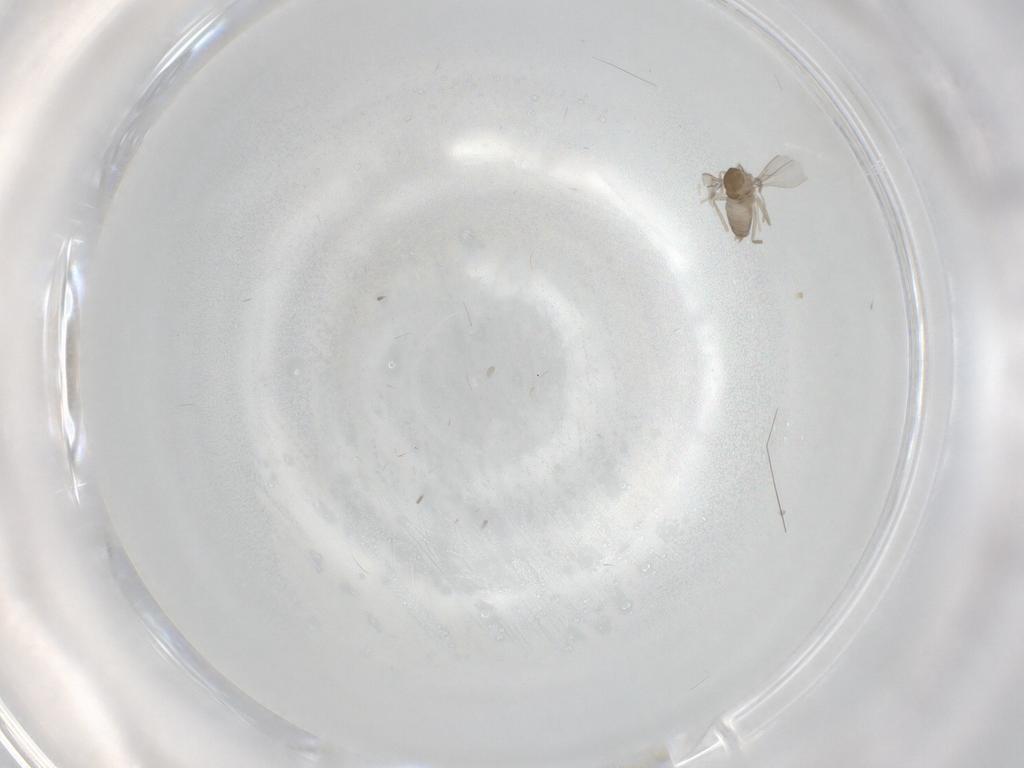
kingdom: Animalia
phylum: Arthropoda
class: Insecta
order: Diptera
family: Cecidomyiidae
